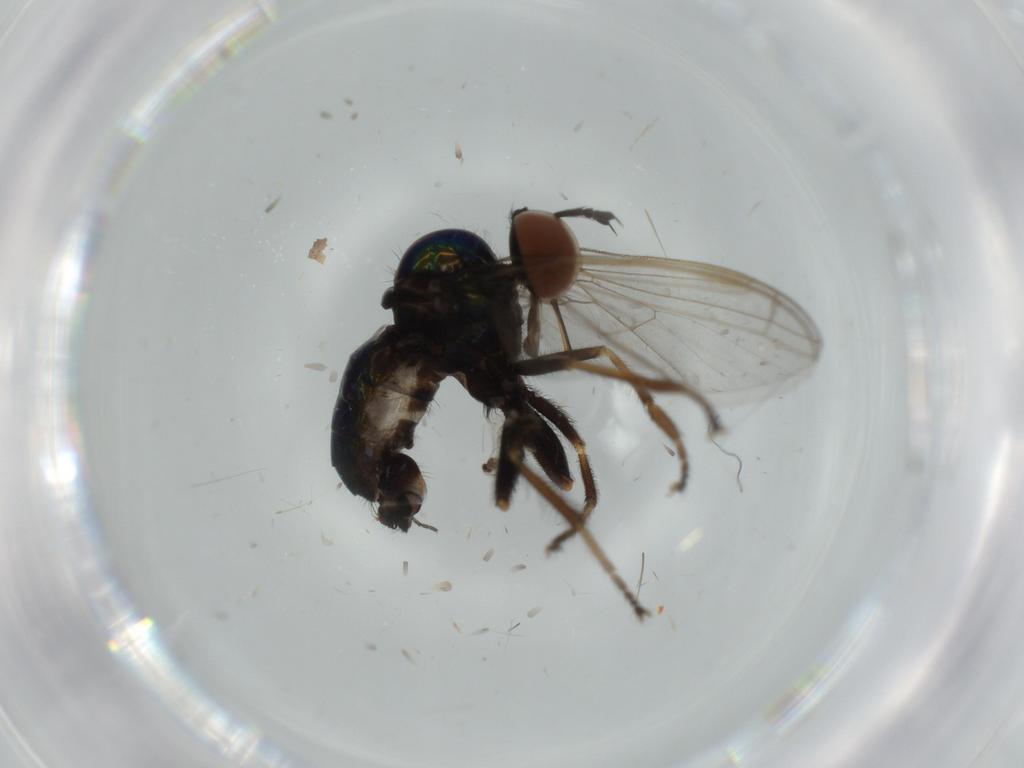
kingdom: Animalia
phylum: Arthropoda
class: Insecta
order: Diptera
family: Empididae
